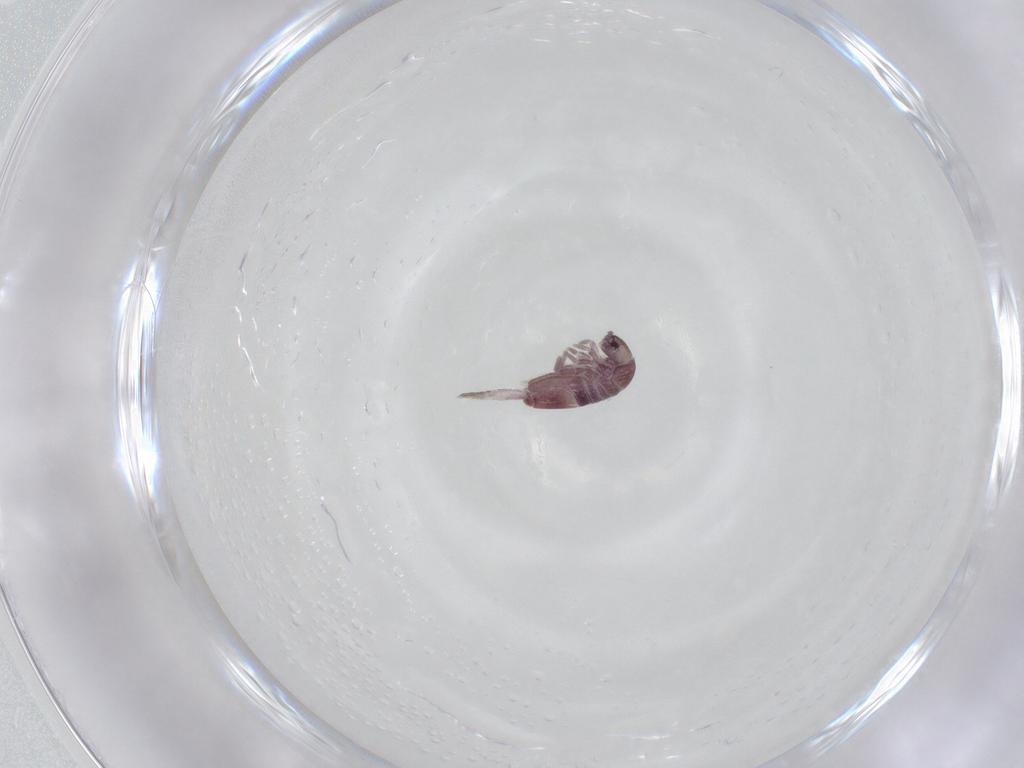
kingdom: Animalia
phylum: Arthropoda
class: Collembola
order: Entomobryomorpha
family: Entomobryidae
